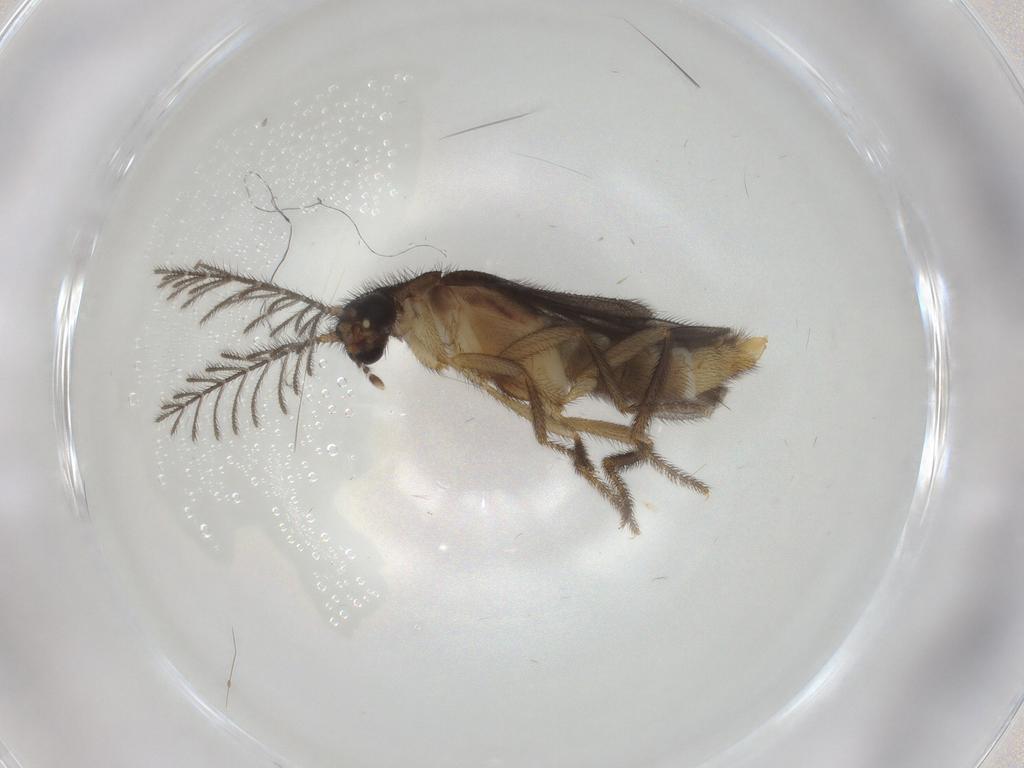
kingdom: Animalia
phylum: Arthropoda
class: Insecta
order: Coleoptera
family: Phengodidae
